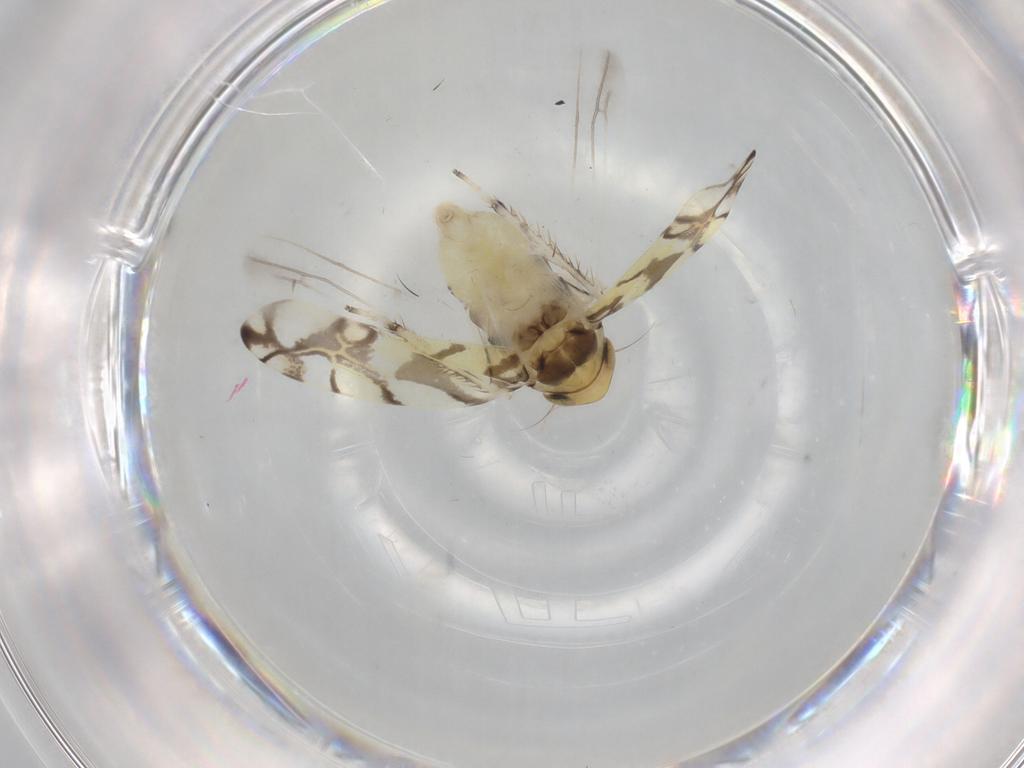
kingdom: Animalia
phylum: Arthropoda
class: Insecta
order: Hemiptera
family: Cicadellidae
